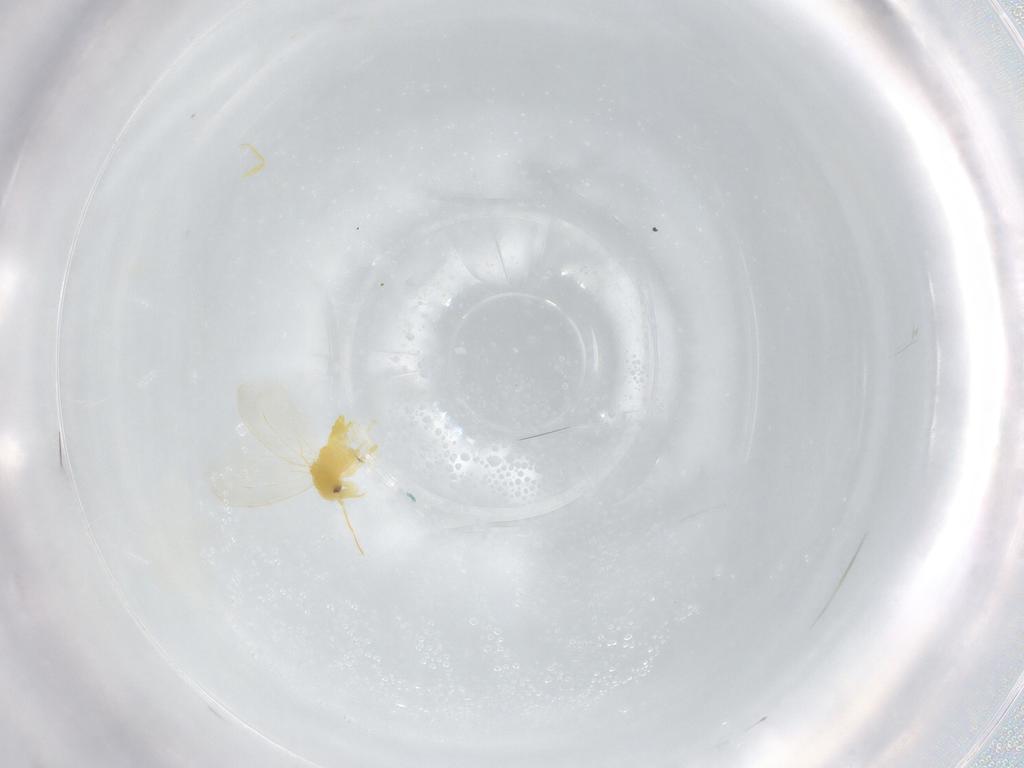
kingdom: Animalia
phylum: Arthropoda
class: Insecta
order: Hemiptera
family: Aleyrodidae
